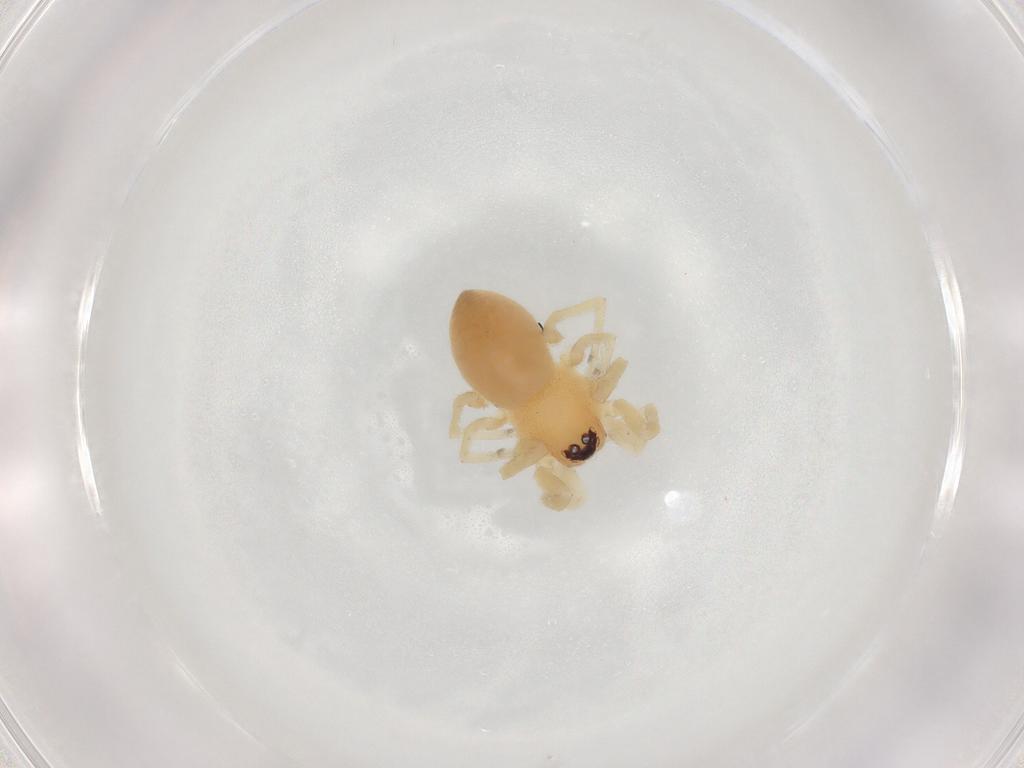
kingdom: Animalia
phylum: Arthropoda
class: Arachnida
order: Araneae
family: Trachelidae
